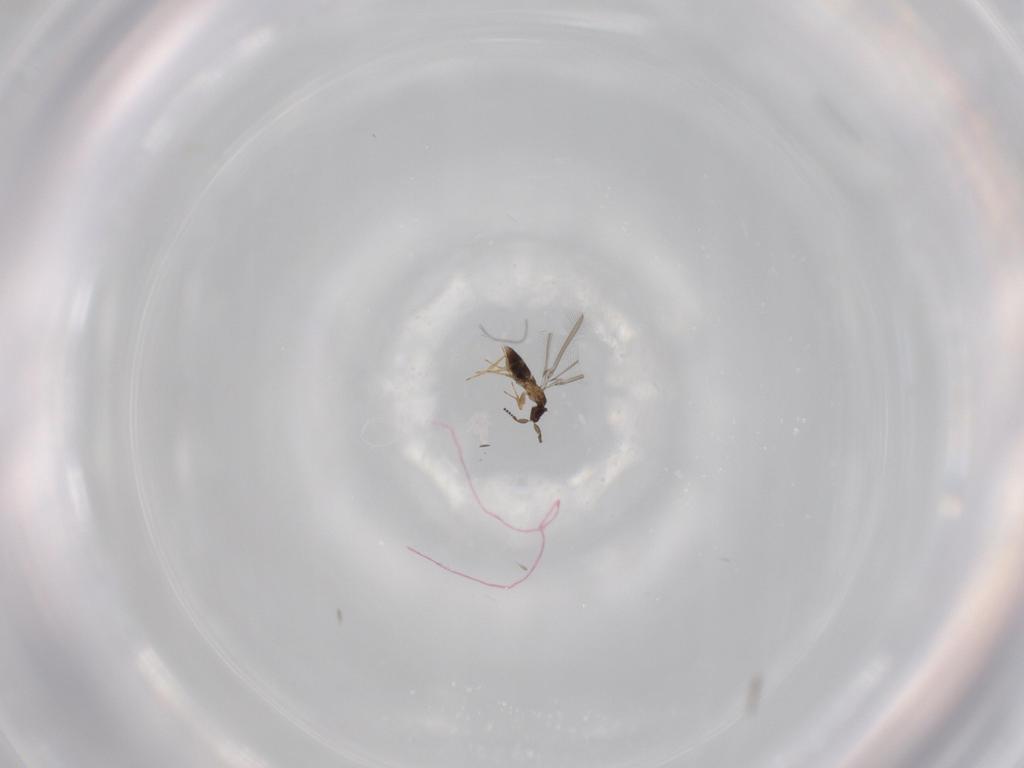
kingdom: Animalia
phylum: Arthropoda
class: Insecta
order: Hymenoptera
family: Mymaridae
